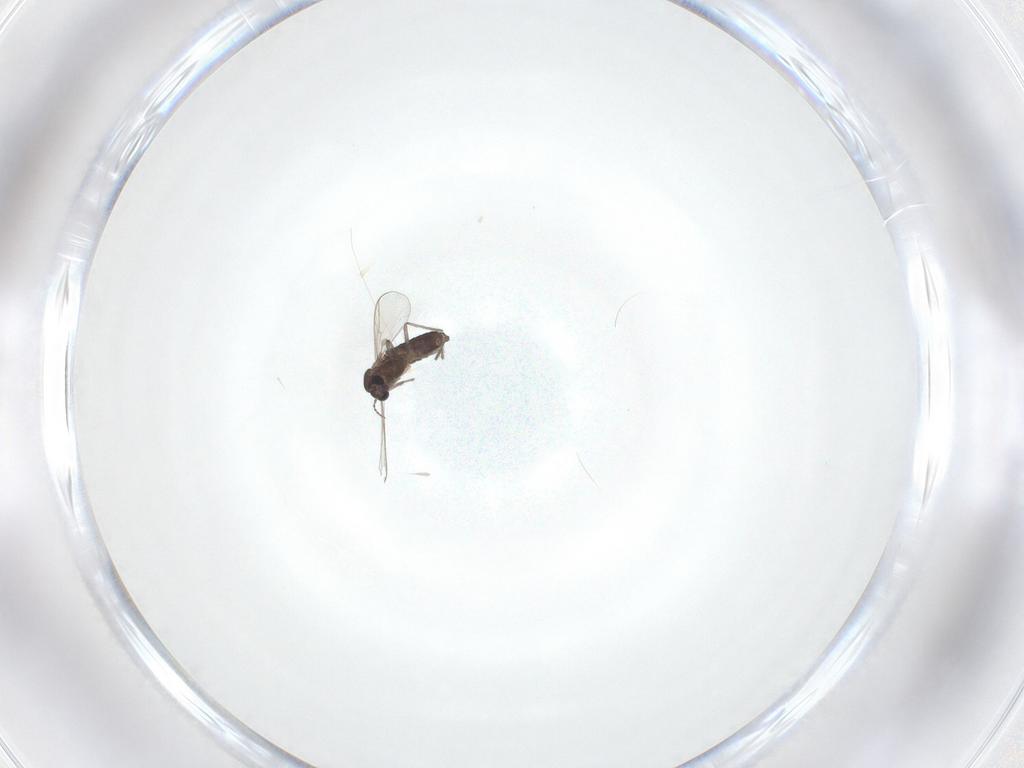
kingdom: Animalia
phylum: Arthropoda
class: Insecta
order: Diptera
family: Chironomidae
